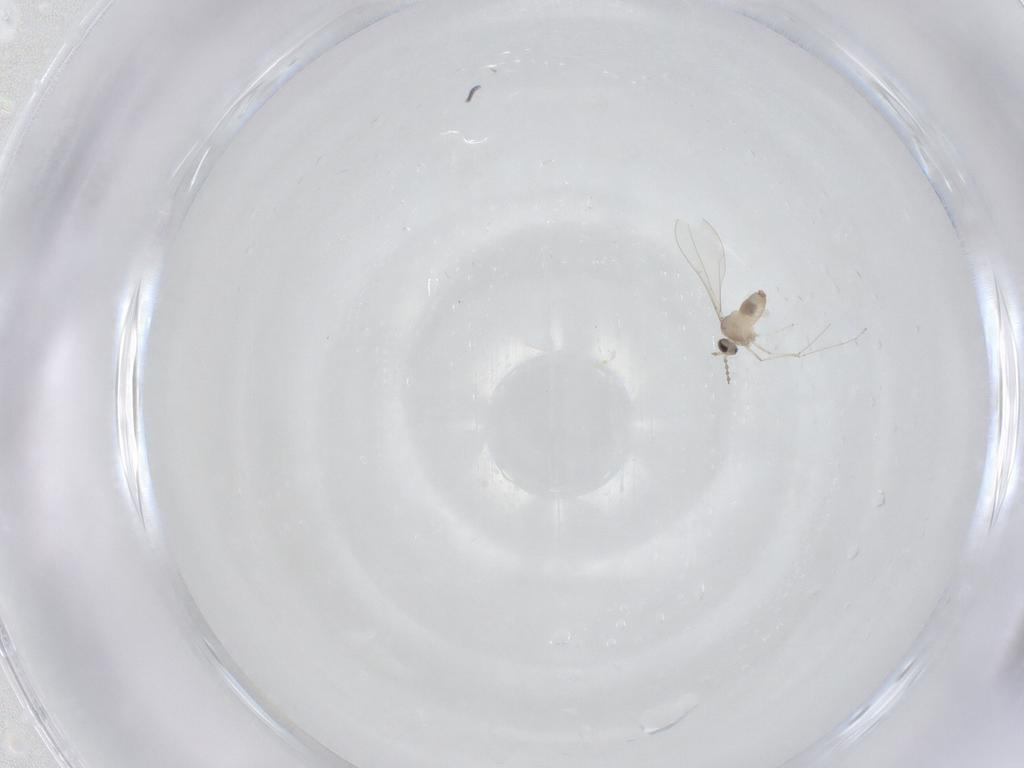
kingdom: Animalia
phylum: Arthropoda
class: Insecta
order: Diptera
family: Cecidomyiidae
